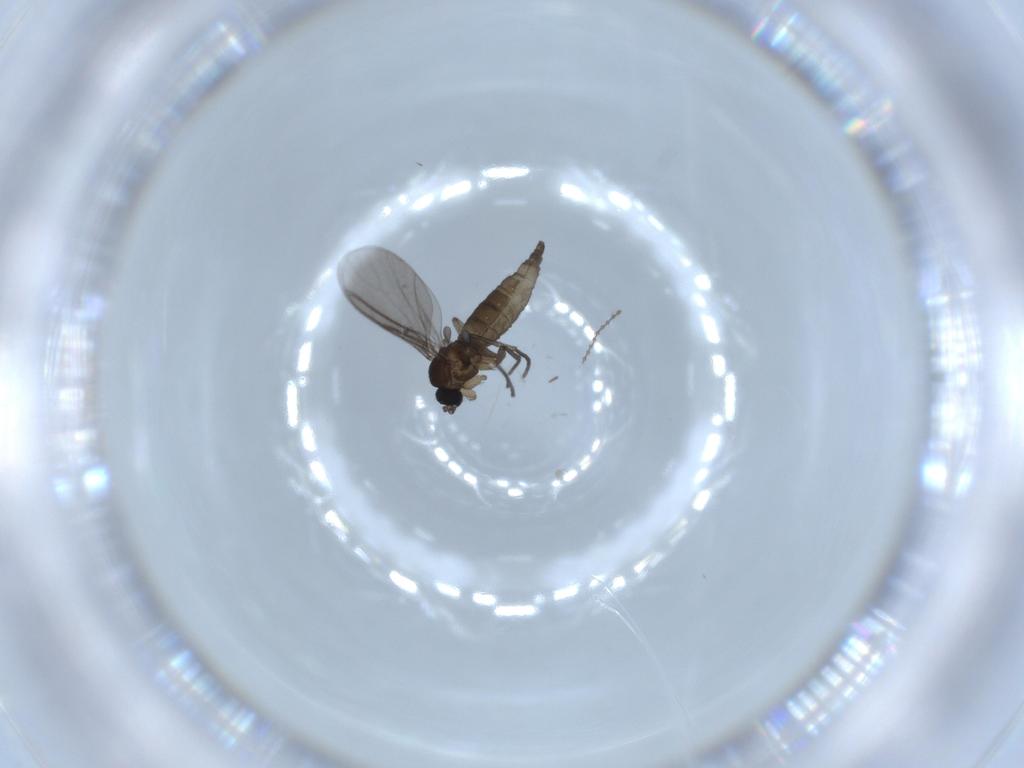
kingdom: Animalia
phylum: Arthropoda
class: Insecta
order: Diptera
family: Cecidomyiidae
